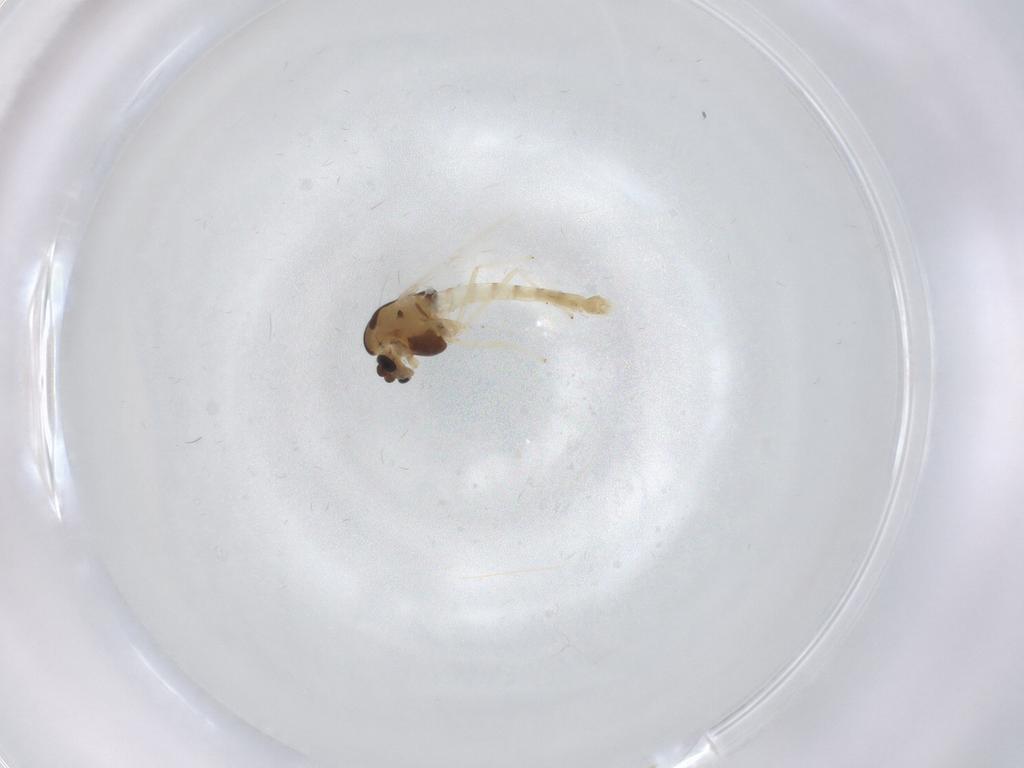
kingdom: Animalia
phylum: Arthropoda
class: Insecta
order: Diptera
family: Chironomidae
